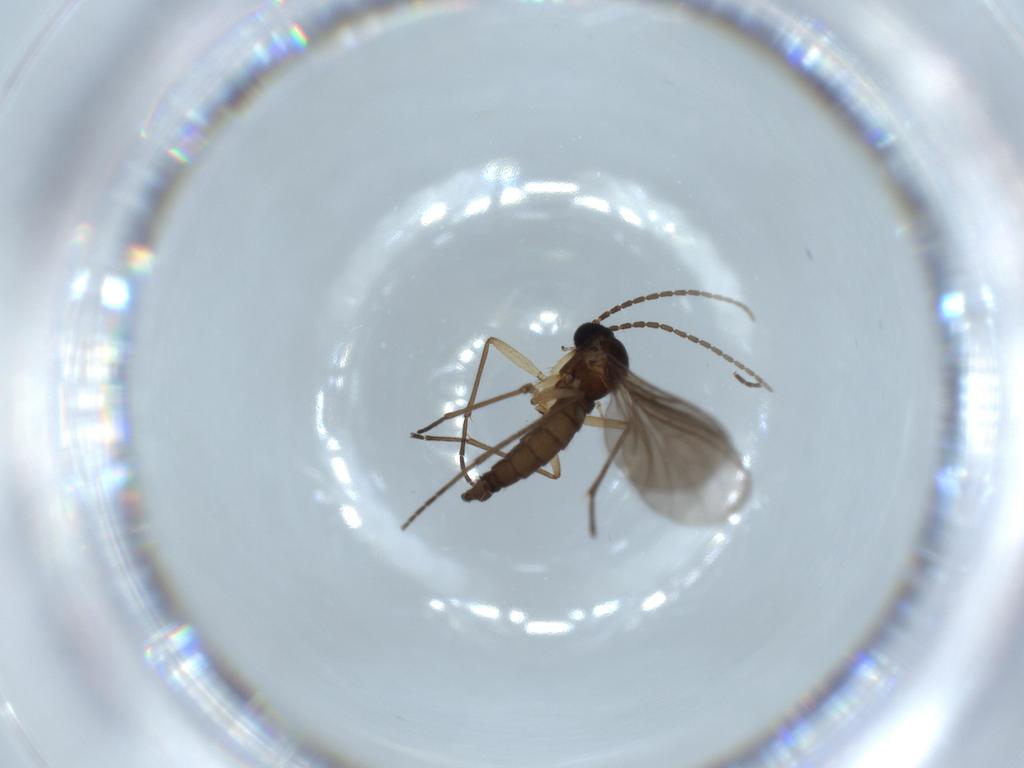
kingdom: Animalia
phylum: Arthropoda
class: Insecta
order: Diptera
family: Sciaridae
